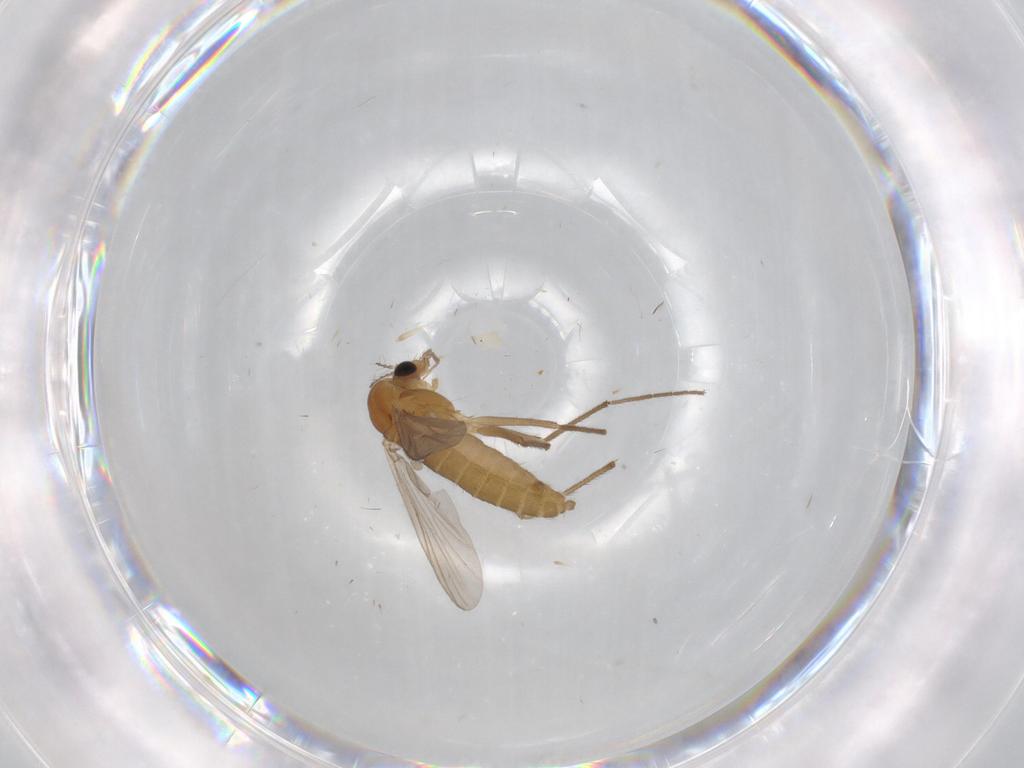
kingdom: Animalia
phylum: Arthropoda
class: Insecta
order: Diptera
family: Chironomidae
